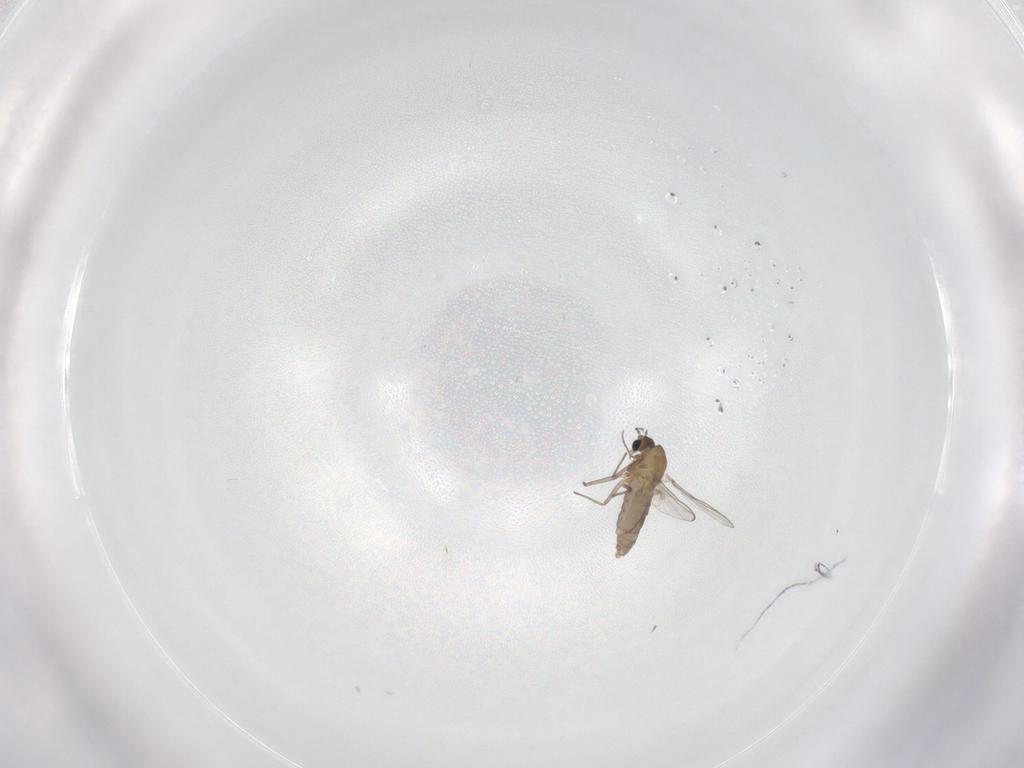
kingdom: Animalia
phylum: Arthropoda
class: Insecta
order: Diptera
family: Chironomidae
